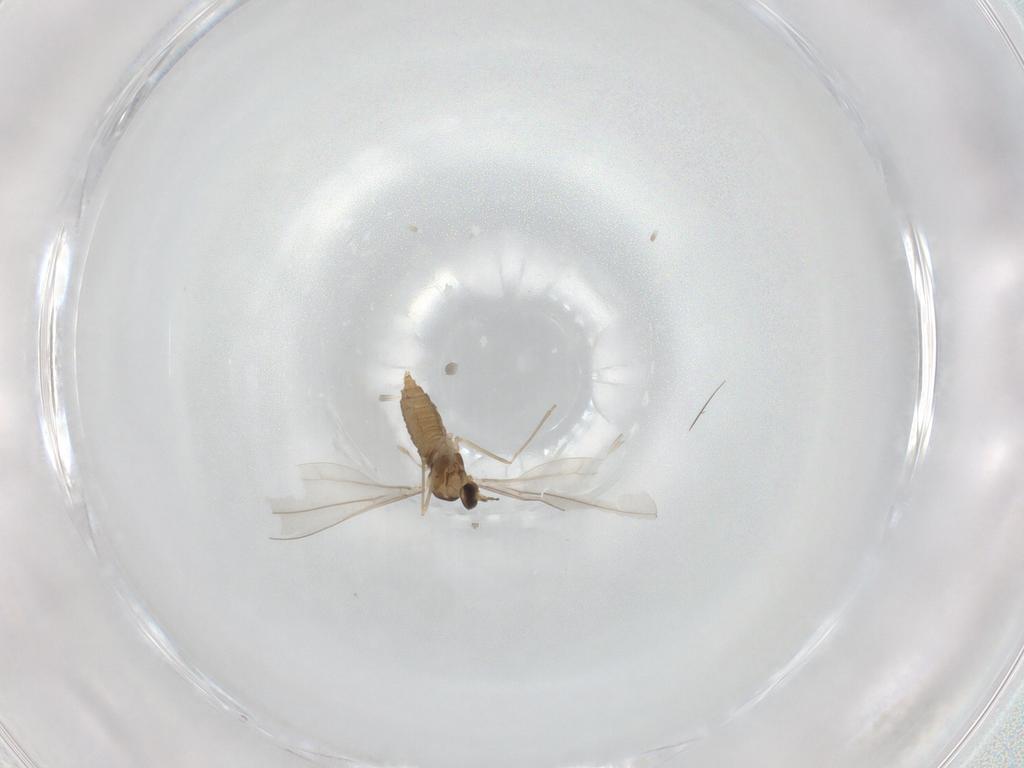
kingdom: Animalia
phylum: Arthropoda
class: Insecta
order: Diptera
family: Cecidomyiidae
